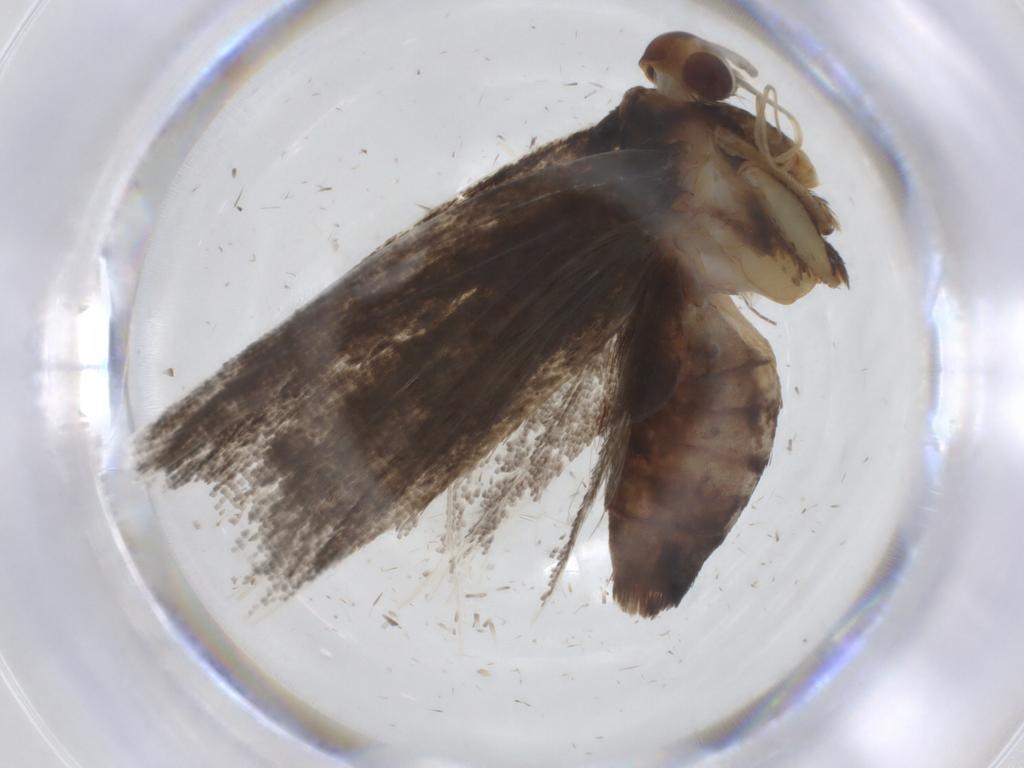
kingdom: Animalia
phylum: Arthropoda
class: Insecta
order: Lepidoptera
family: Lecithoceridae
